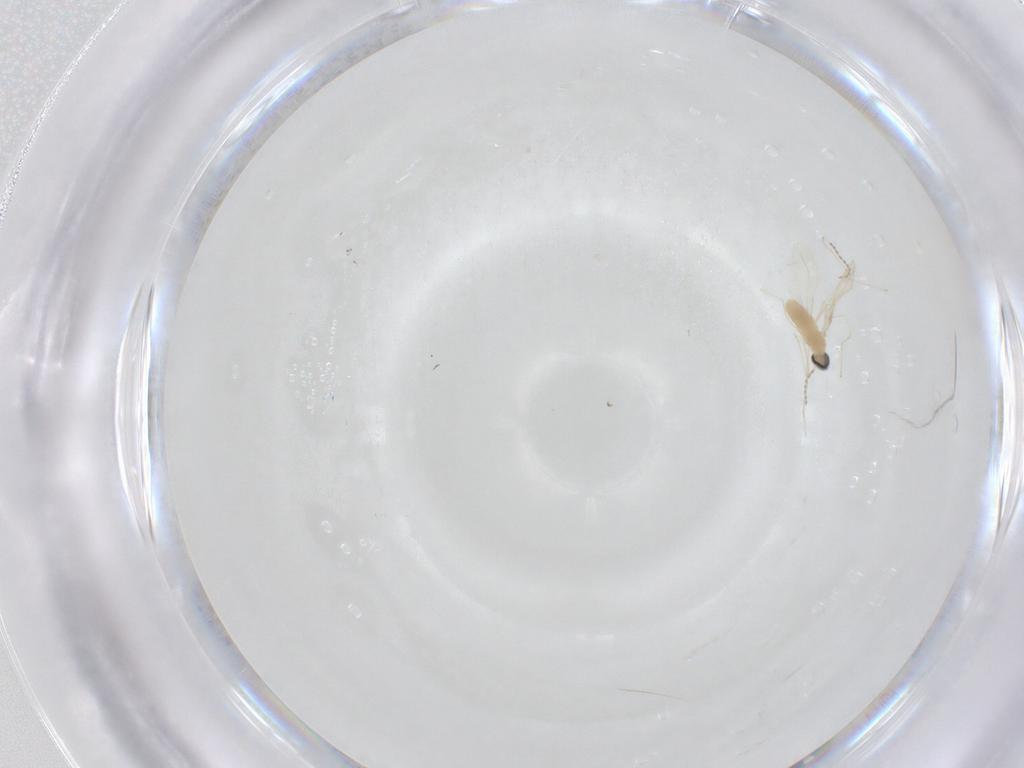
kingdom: Animalia
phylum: Arthropoda
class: Insecta
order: Diptera
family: Cecidomyiidae
